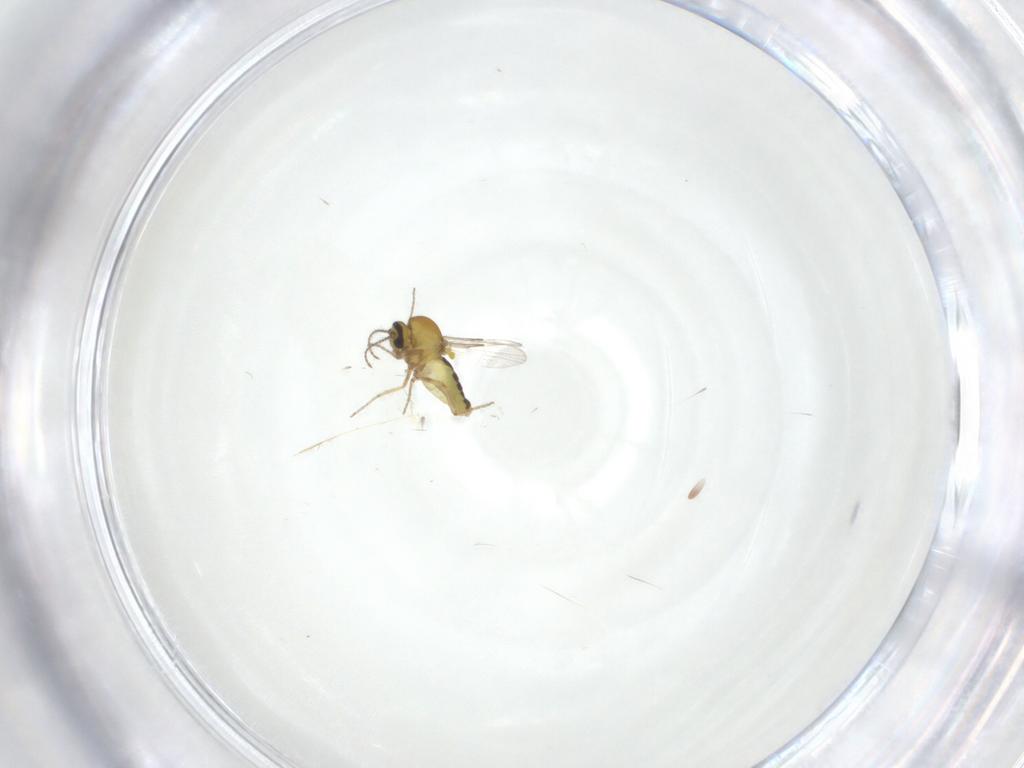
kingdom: Animalia
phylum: Arthropoda
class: Insecta
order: Diptera
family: Ceratopogonidae
